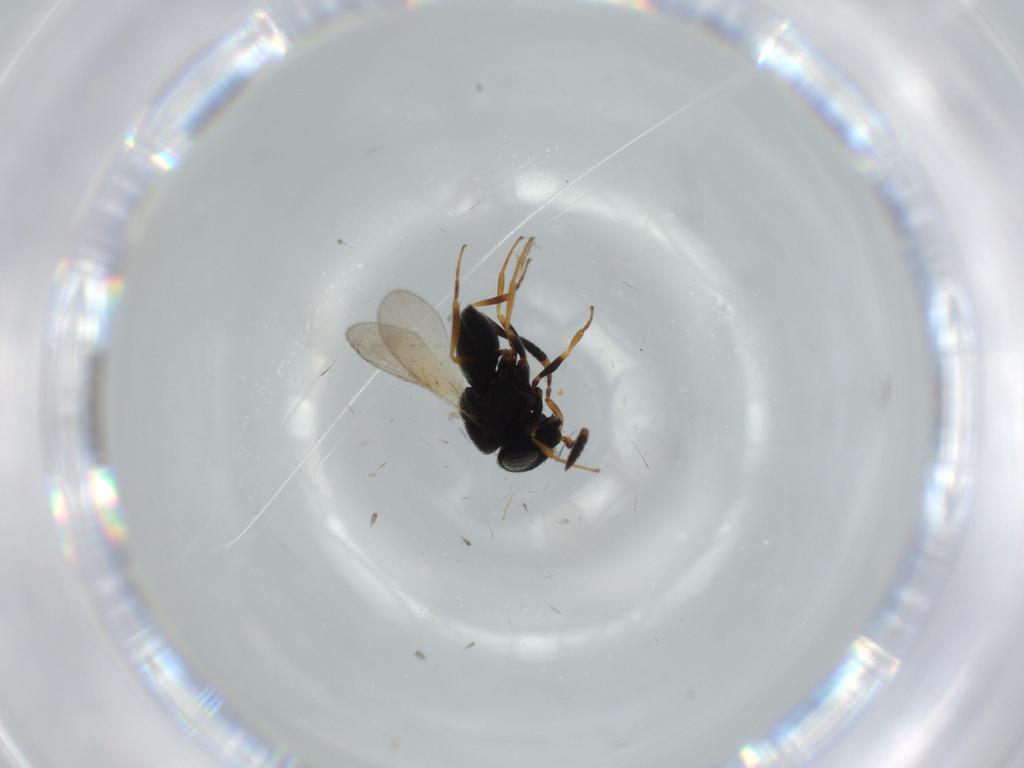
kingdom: Animalia
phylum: Arthropoda
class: Insecta
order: Hymenoptera
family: Scelionidae
